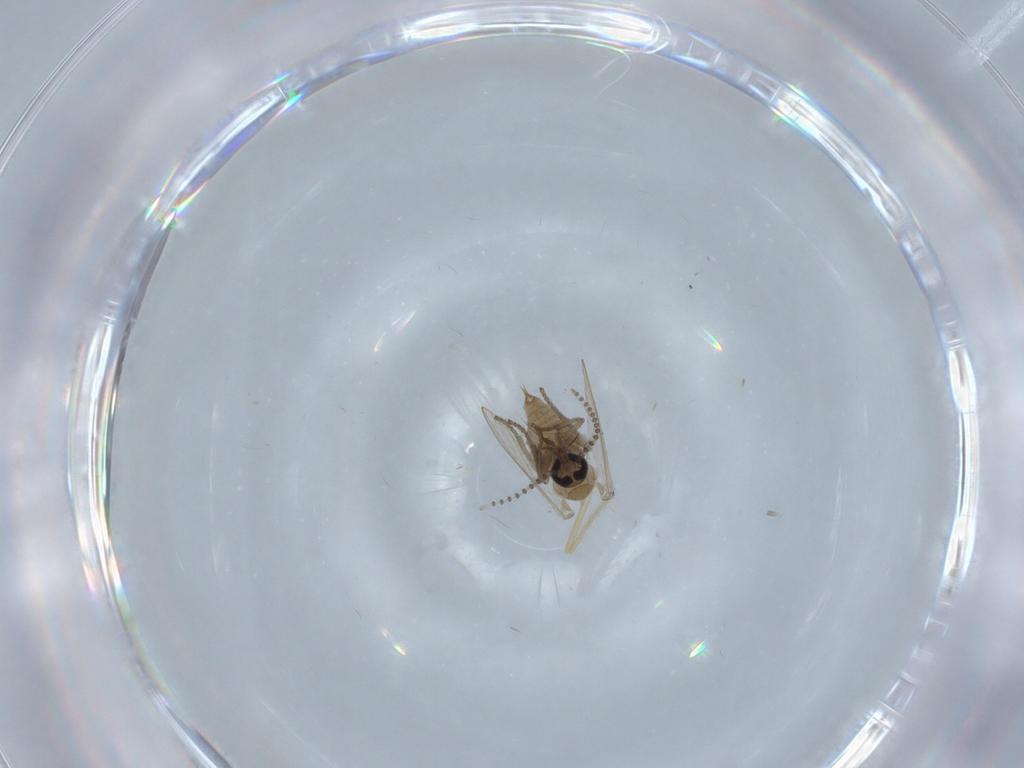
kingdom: Animalia
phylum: Arthropoda
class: Insecta
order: Diptera
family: Psychodidae
